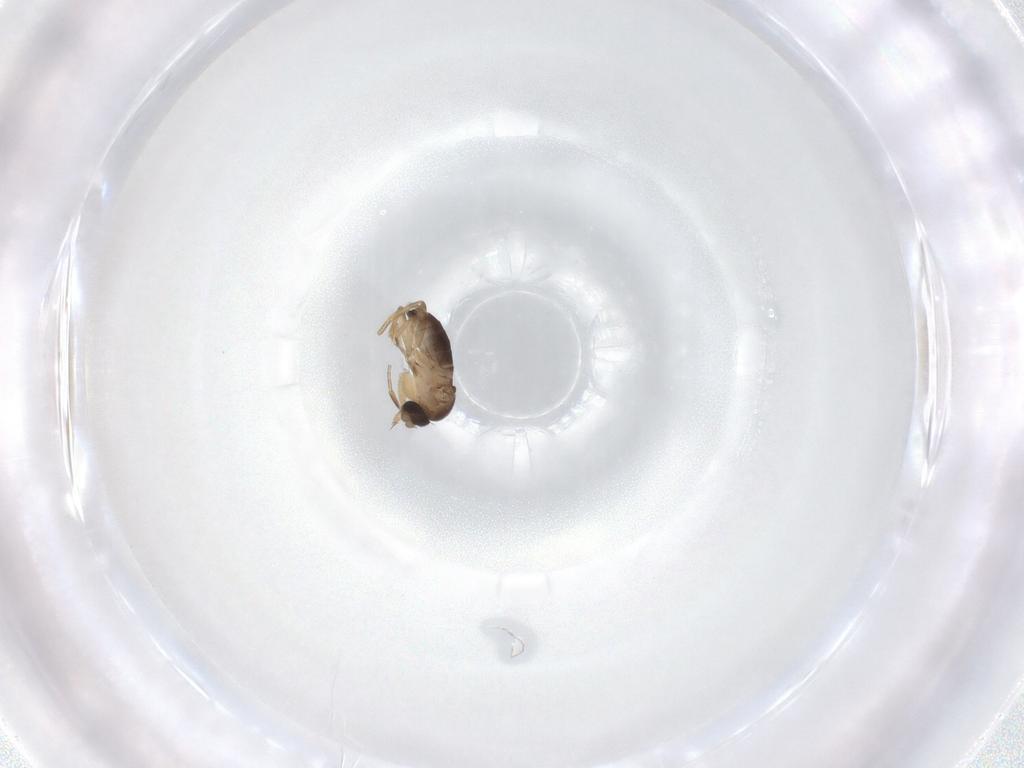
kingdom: Animalia
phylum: Arthropoda
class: Insecta
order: Diptera
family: Phoridae
